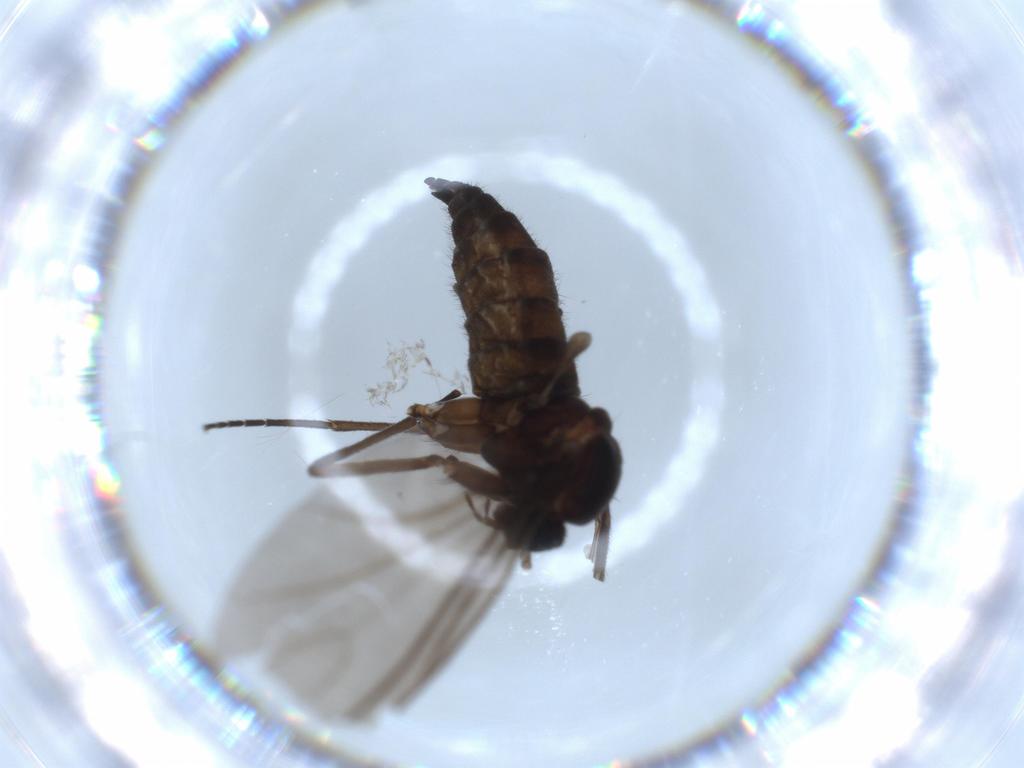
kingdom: Animalia
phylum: Arthropoda
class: Insecta
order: Diptera
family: Sciaridae
